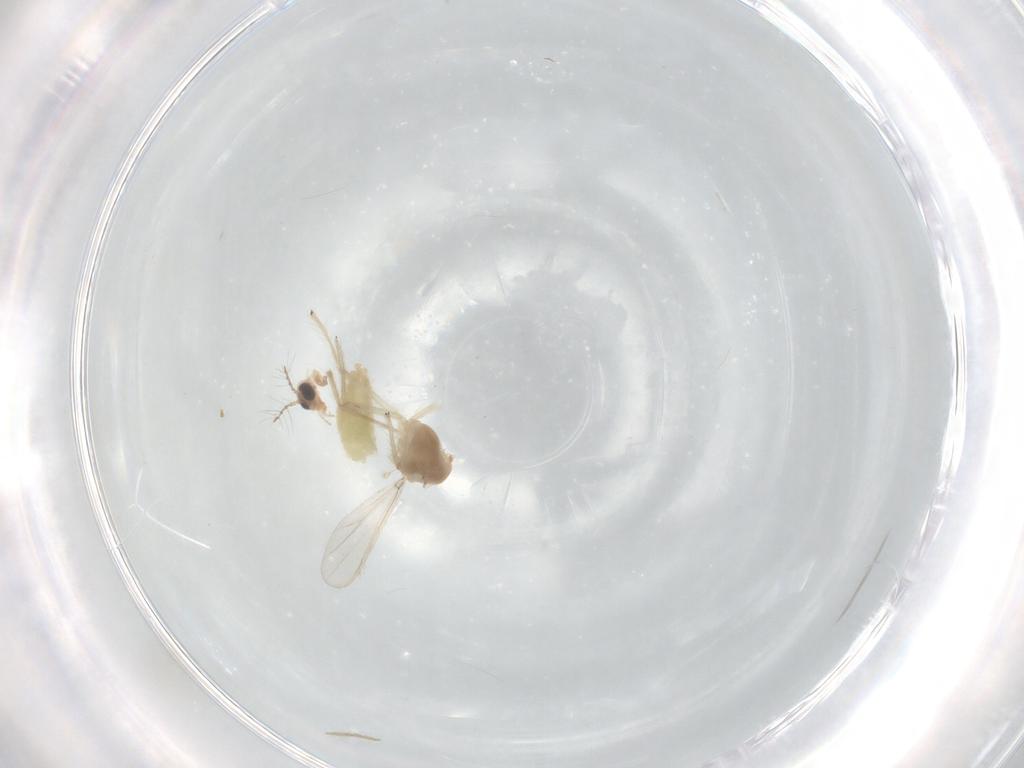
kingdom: Animalia
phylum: Arthropoda
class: Insecta
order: Diptera
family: Chironomidae
